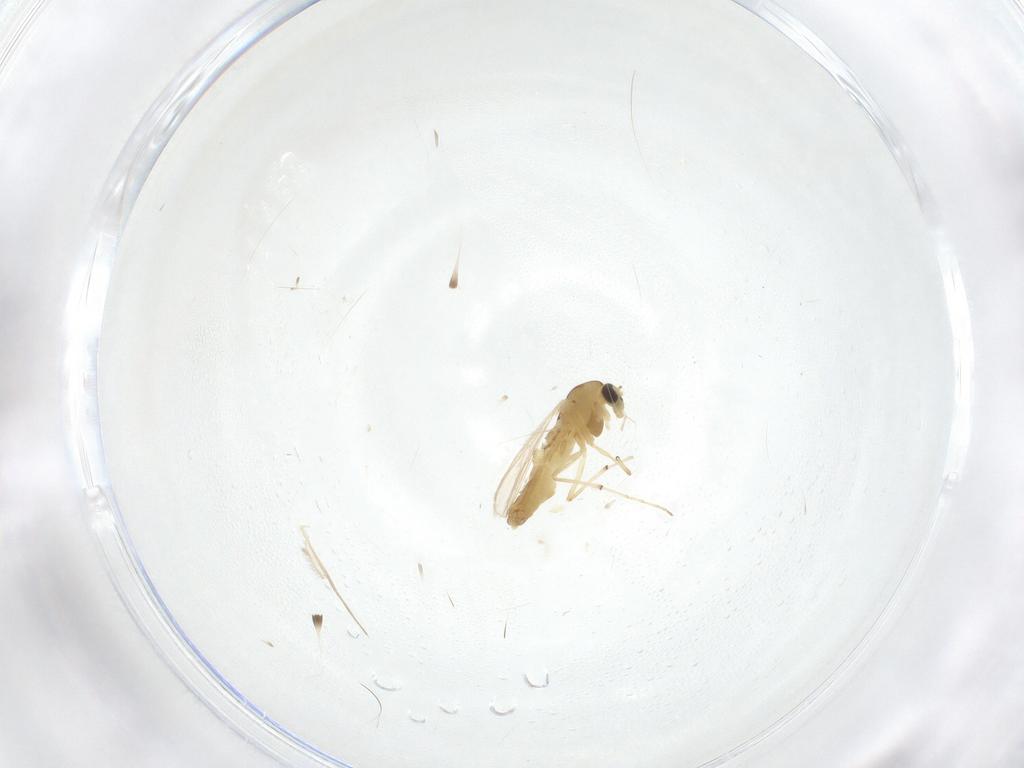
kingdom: Animalia
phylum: Arthropoda
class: Insecta
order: Diptera
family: Chironomidae
